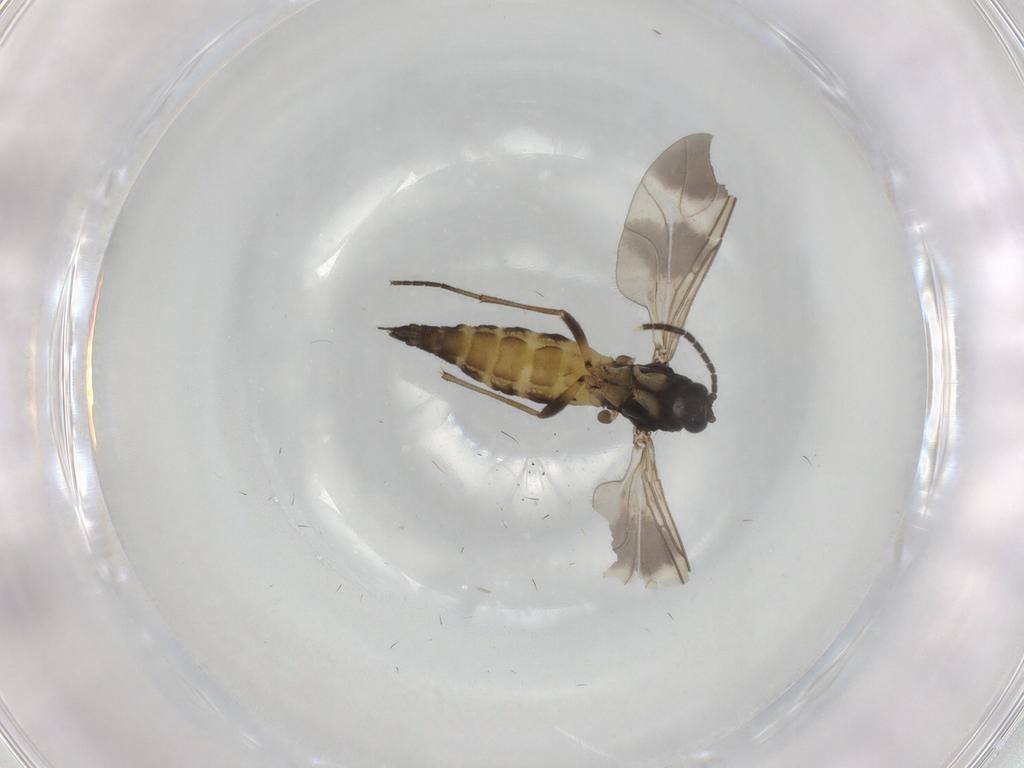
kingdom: Animalia
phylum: Arthropoda
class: Insecta
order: Diptera
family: Sciaridae
